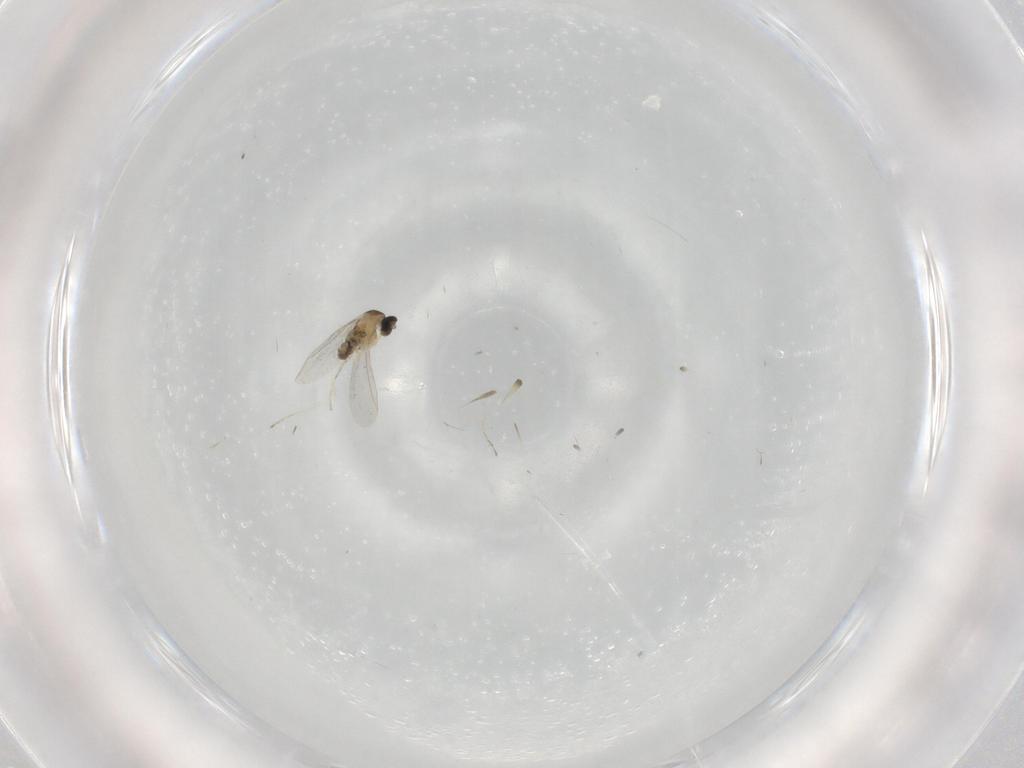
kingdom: Animalia
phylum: Arthropoda
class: Insecta
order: Diptera
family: Cecidomyiidae
